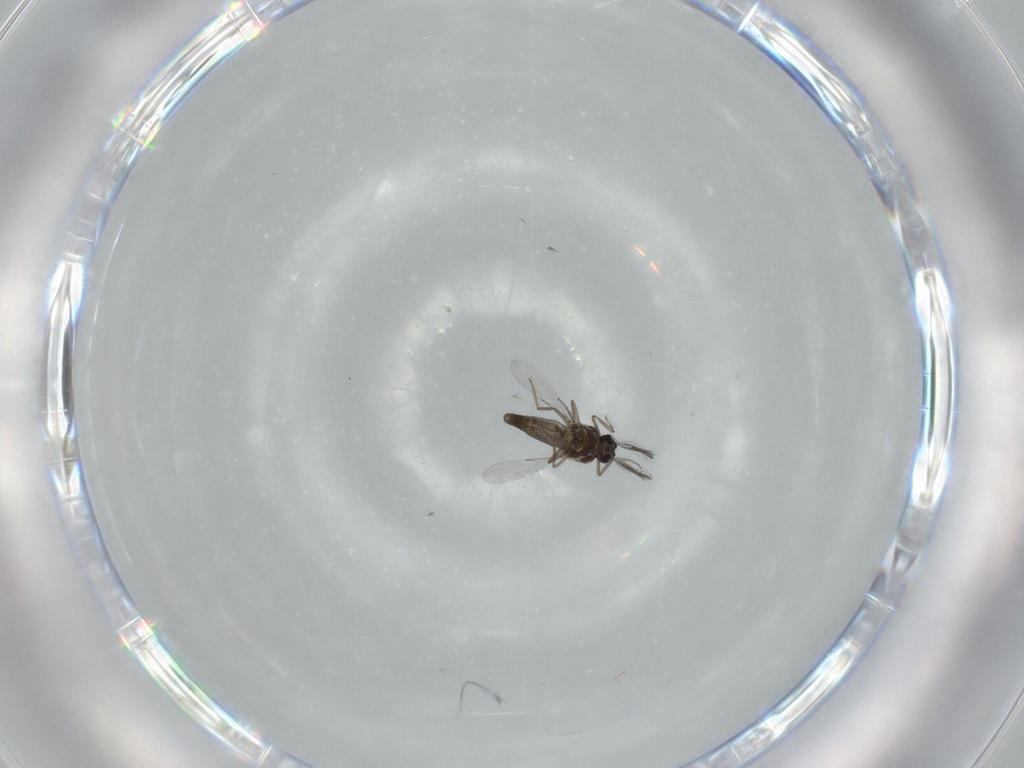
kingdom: Animalia
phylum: Arthropoda
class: Insecta
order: Diptera
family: Ceratopogonidae
